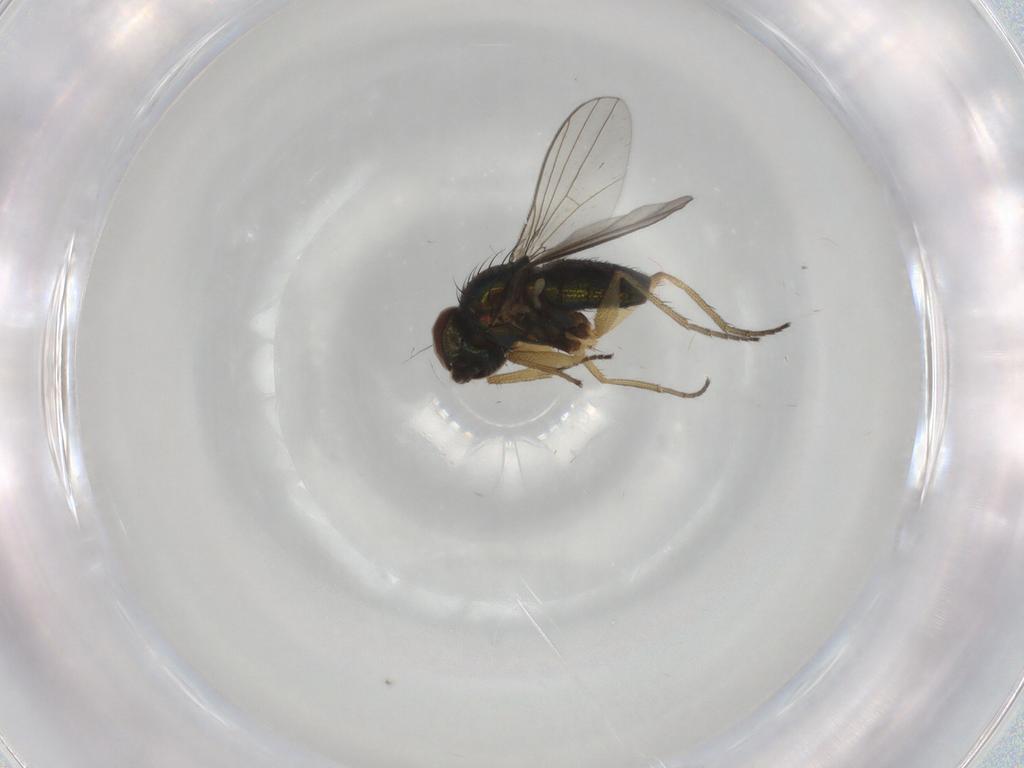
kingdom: Animalia
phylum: Arthropoda
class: Insecta
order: Diptera
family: Dolichopodidae
